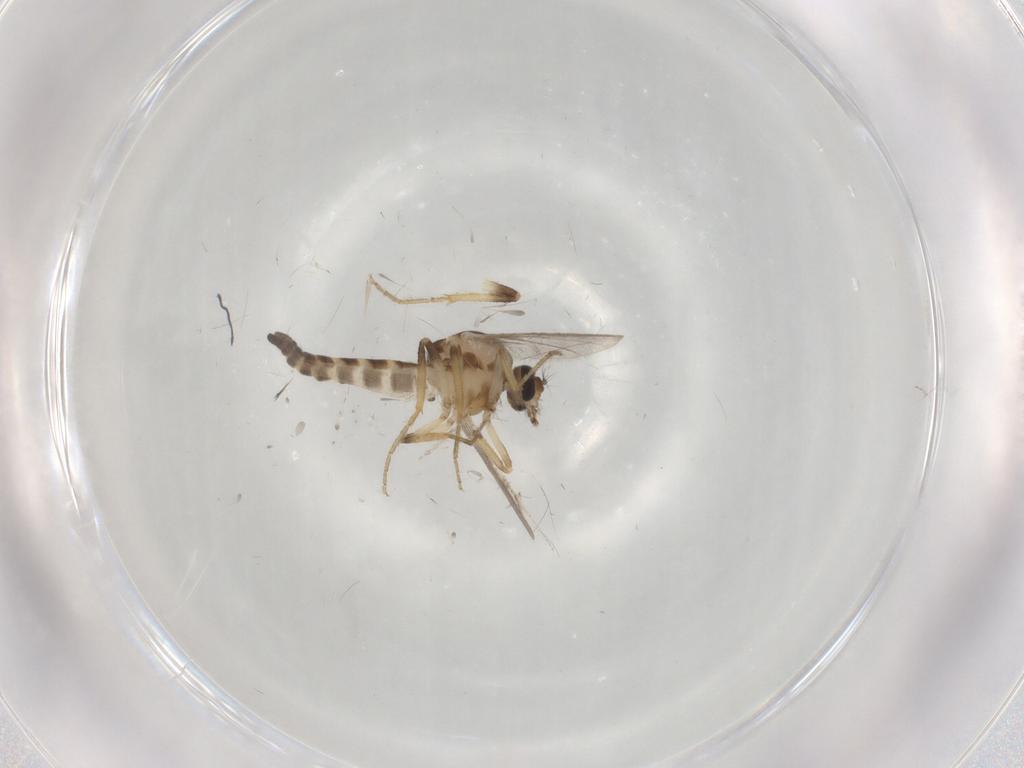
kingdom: Animalia
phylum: Arthropoda
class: Insecta
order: Diptera
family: Ceratopogonidae
